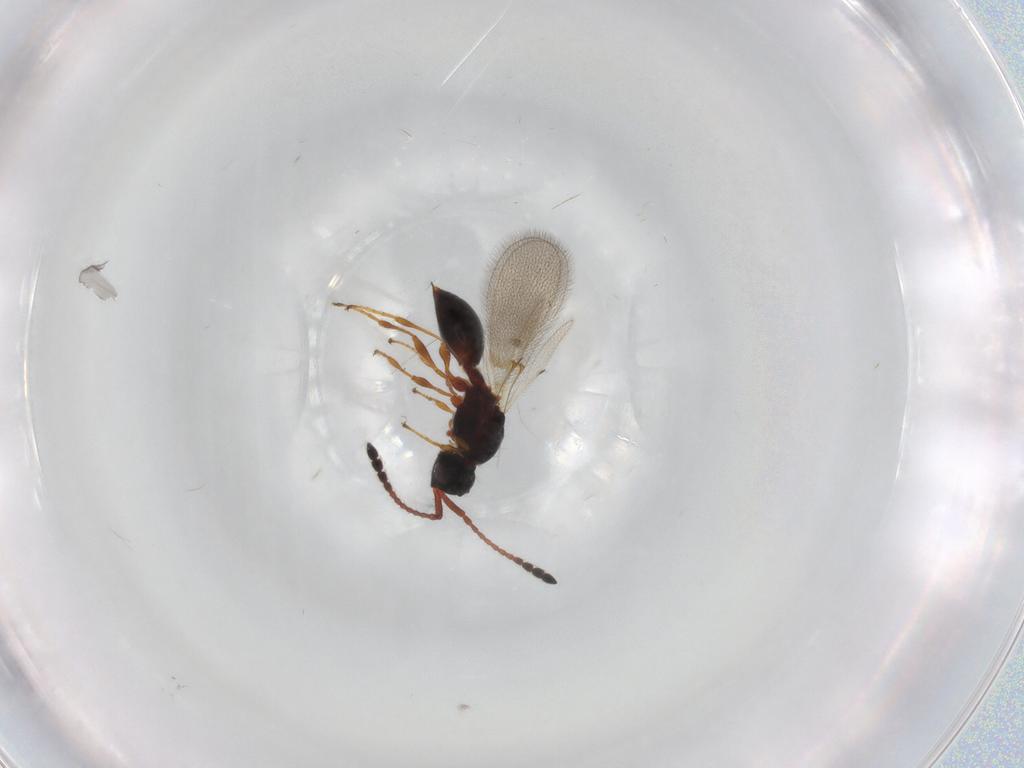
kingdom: Animalia
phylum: Arthropoda
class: Insecta
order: Hymenoptera
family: Diapriidae
